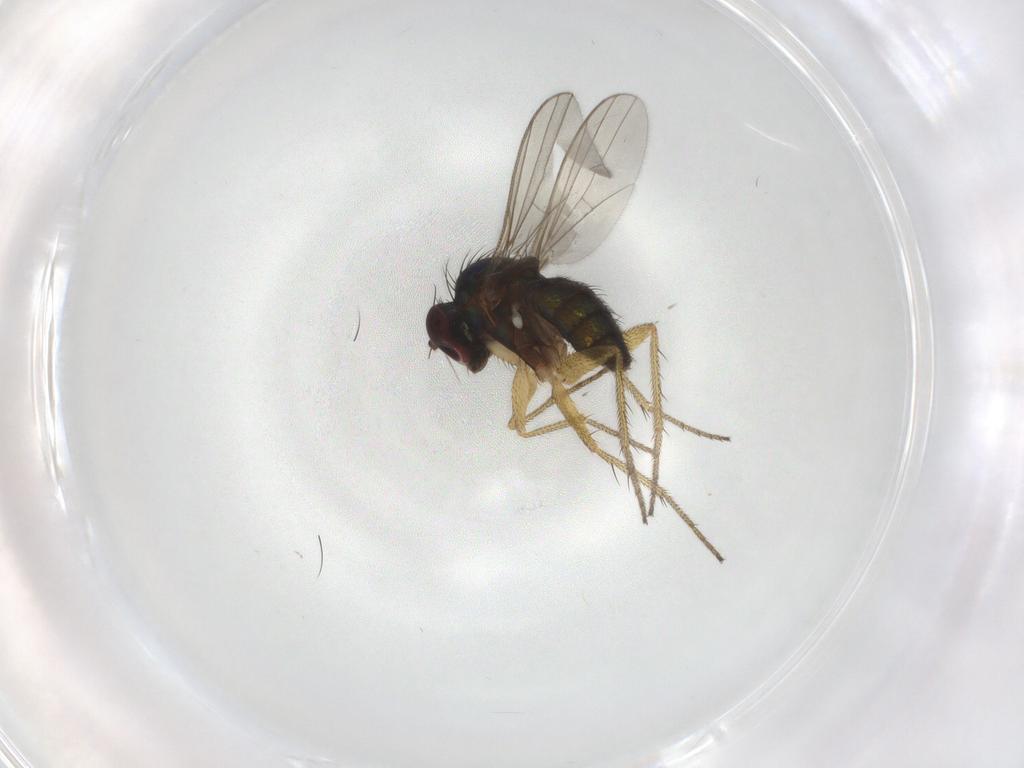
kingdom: Animalia
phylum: Arthropoda
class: Insecta
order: Diptera
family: Dolichopodidae
